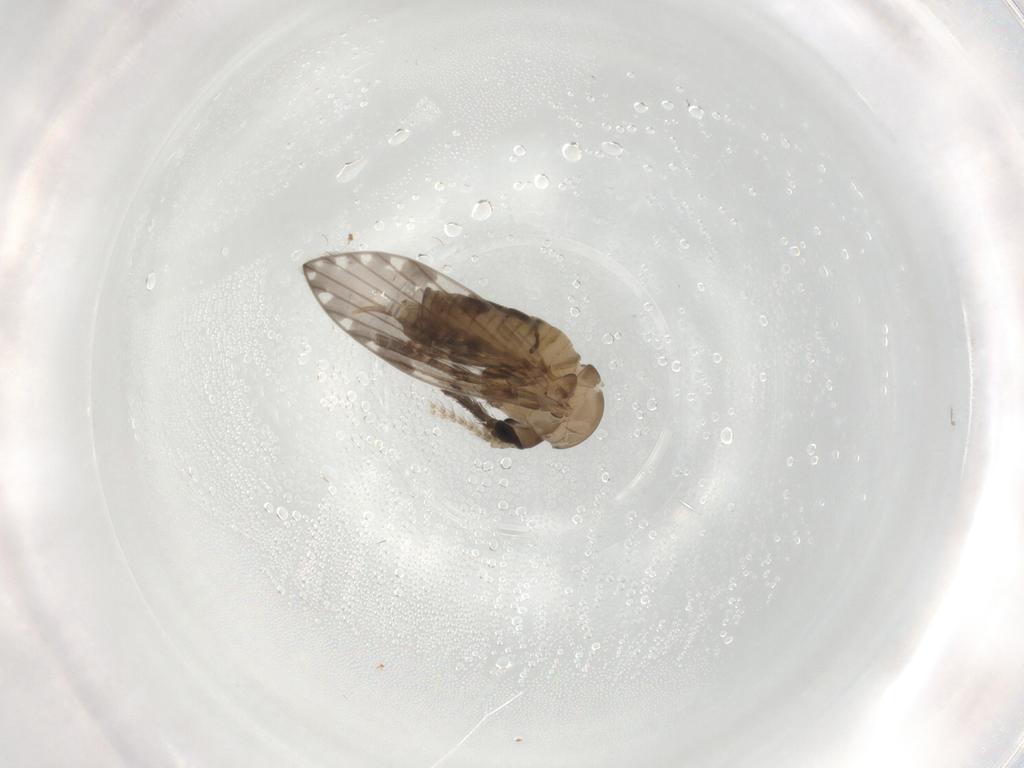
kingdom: Animalia
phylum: Arthropoda
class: Insecta
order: Diptera
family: Psychodidae
